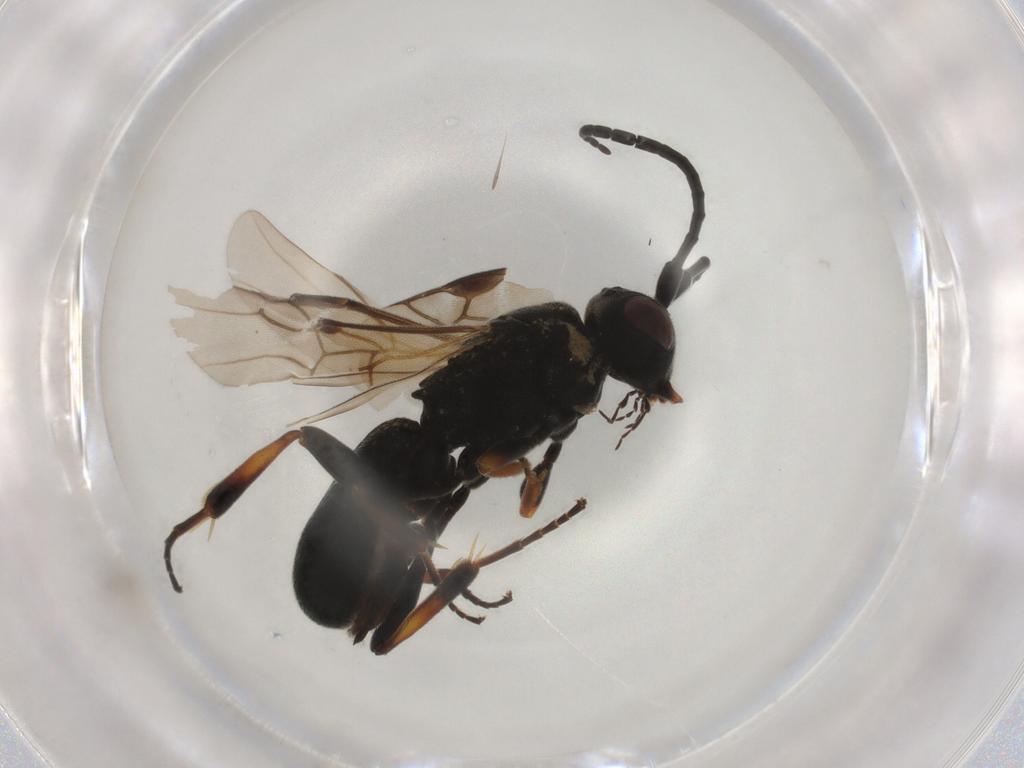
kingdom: Animalia
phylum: Arthropoda
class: Insecta
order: Hymenoptera
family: Braconidae
